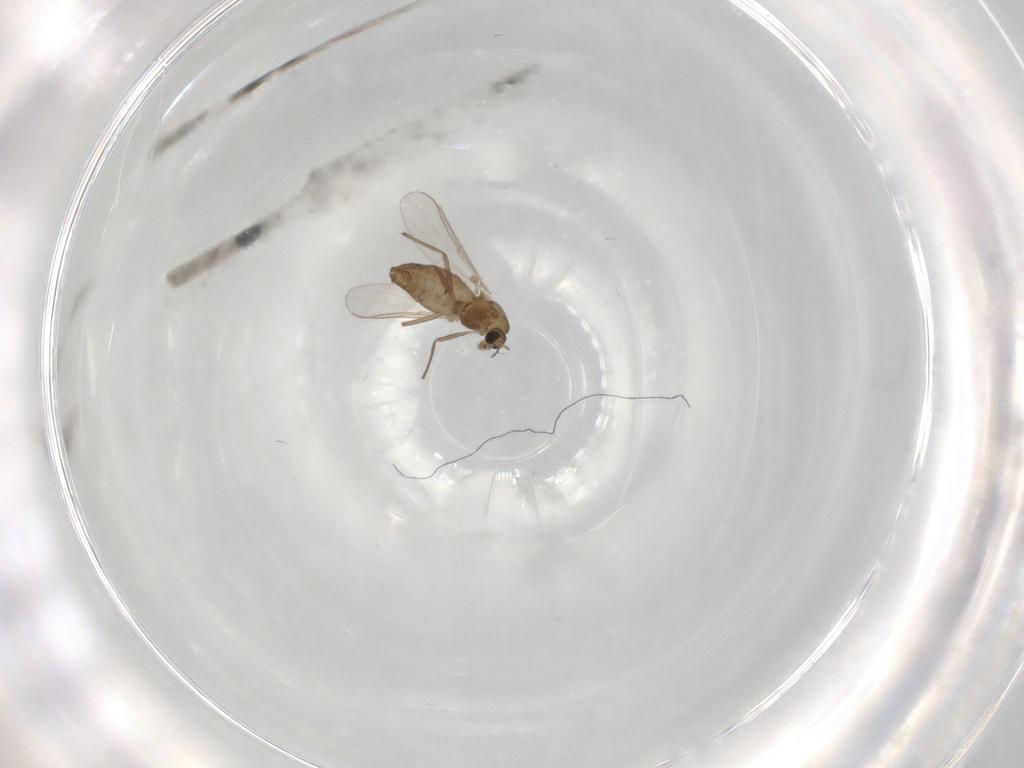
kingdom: Animalia
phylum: Arthropoda
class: Insecta
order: Diptera
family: Chironomidae
